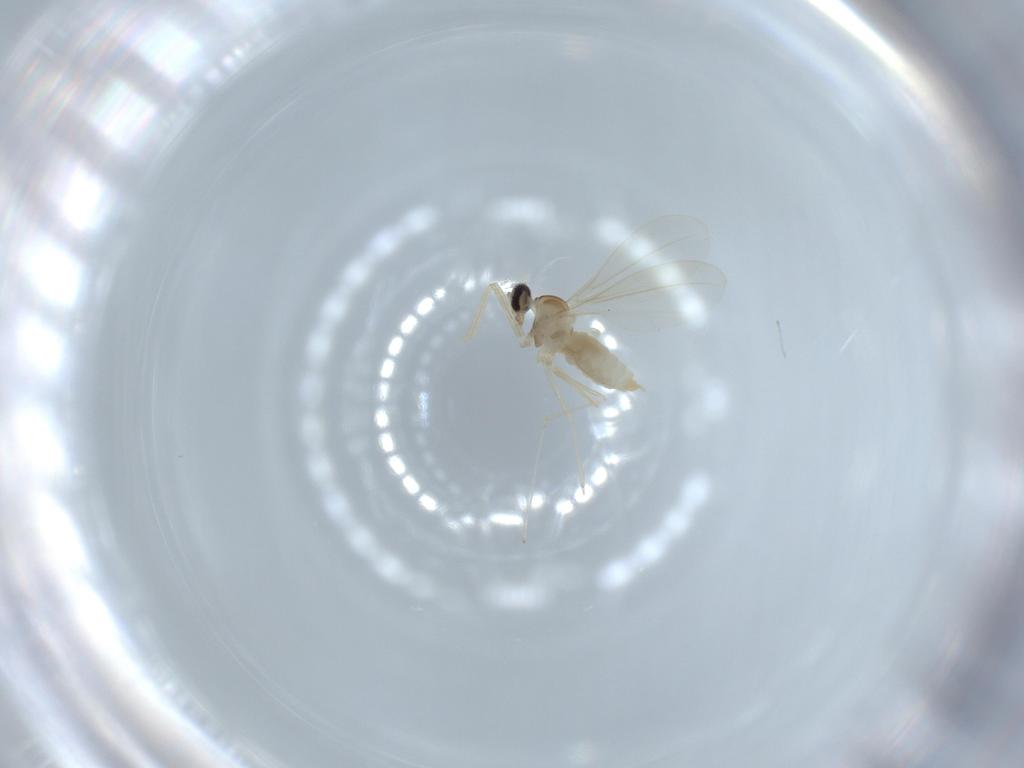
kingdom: Animalia
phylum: Arthropoda
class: Insecta
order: Diptera
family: Cecidomyiidae
